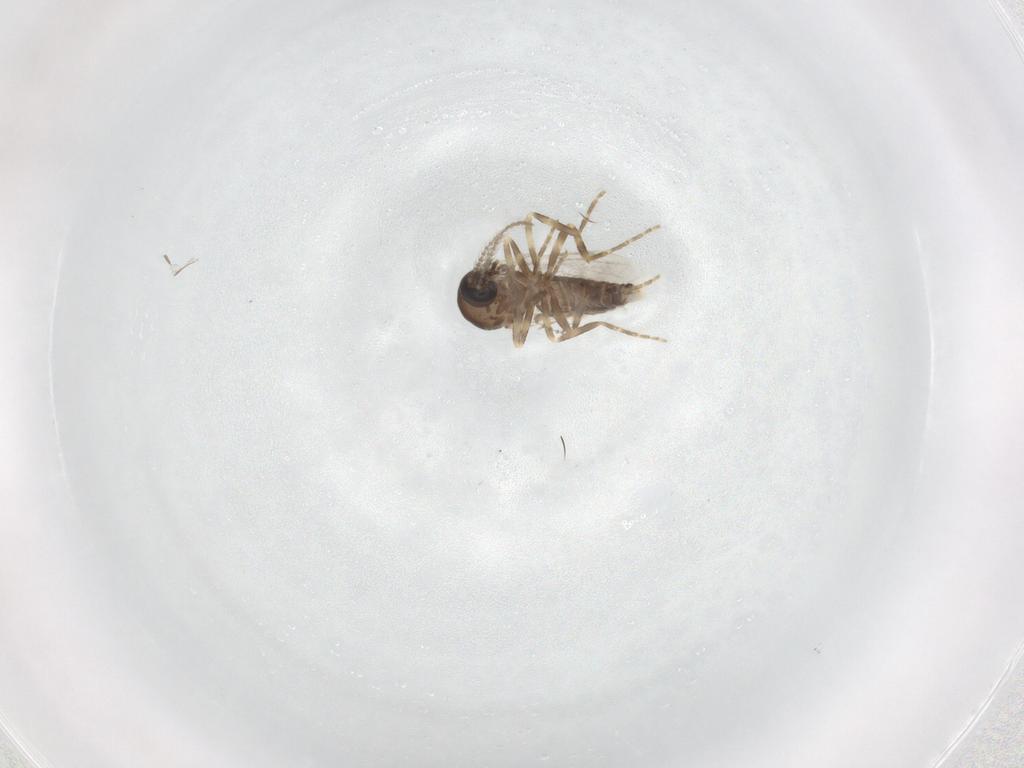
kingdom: Animalia
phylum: Arthropoda
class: Insecta
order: Diptera
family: Ceratopogonidae
